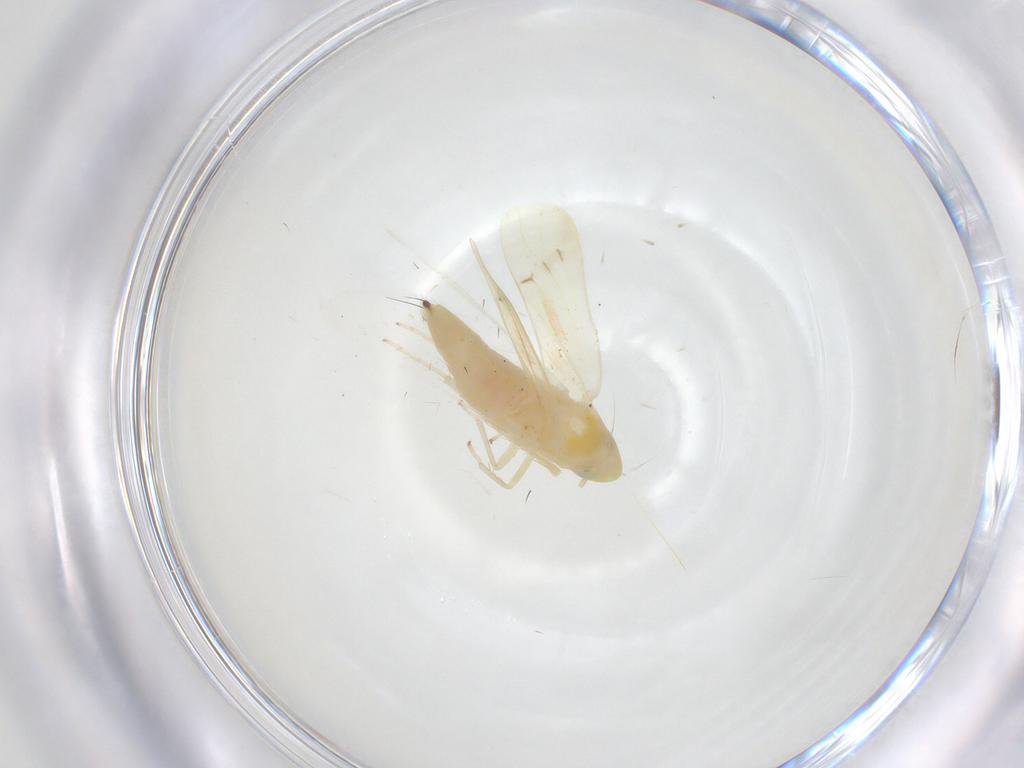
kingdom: Animalia
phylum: Arthropoda
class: Insecta
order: Hemiptera
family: Cicadellidae
